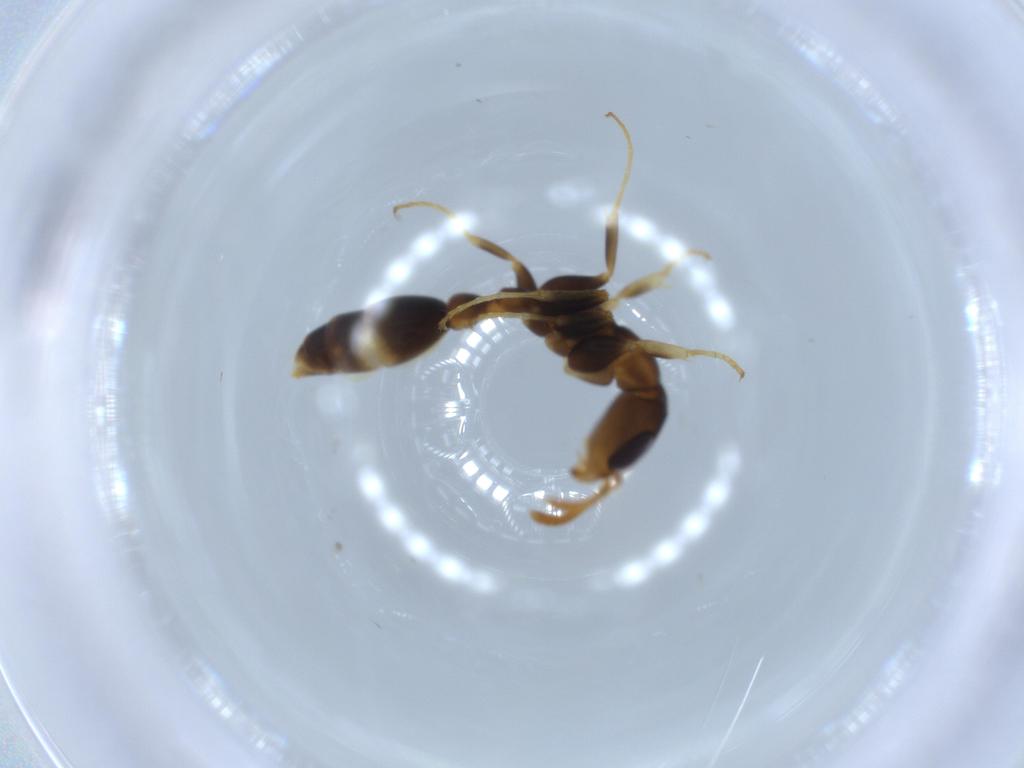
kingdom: Animalia
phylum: Arthropoda
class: Insecta
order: Hymenoptera
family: Formicidae
